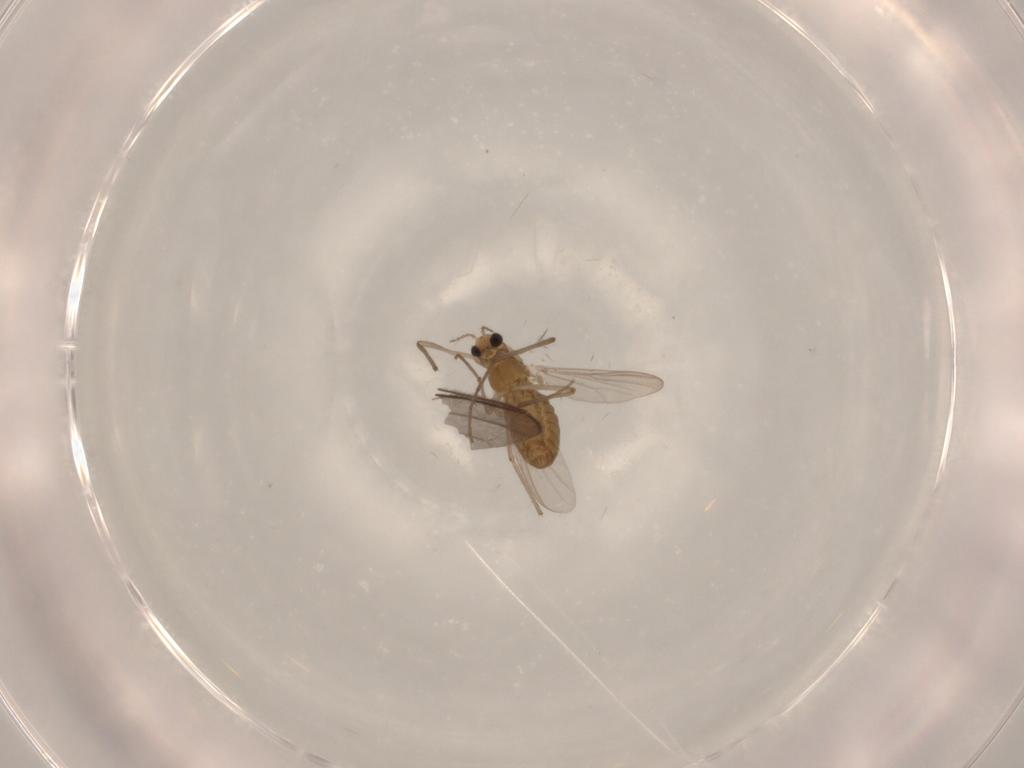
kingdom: Animalia
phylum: Arthropoda
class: Insecta
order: Diptera
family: Chironomidae
